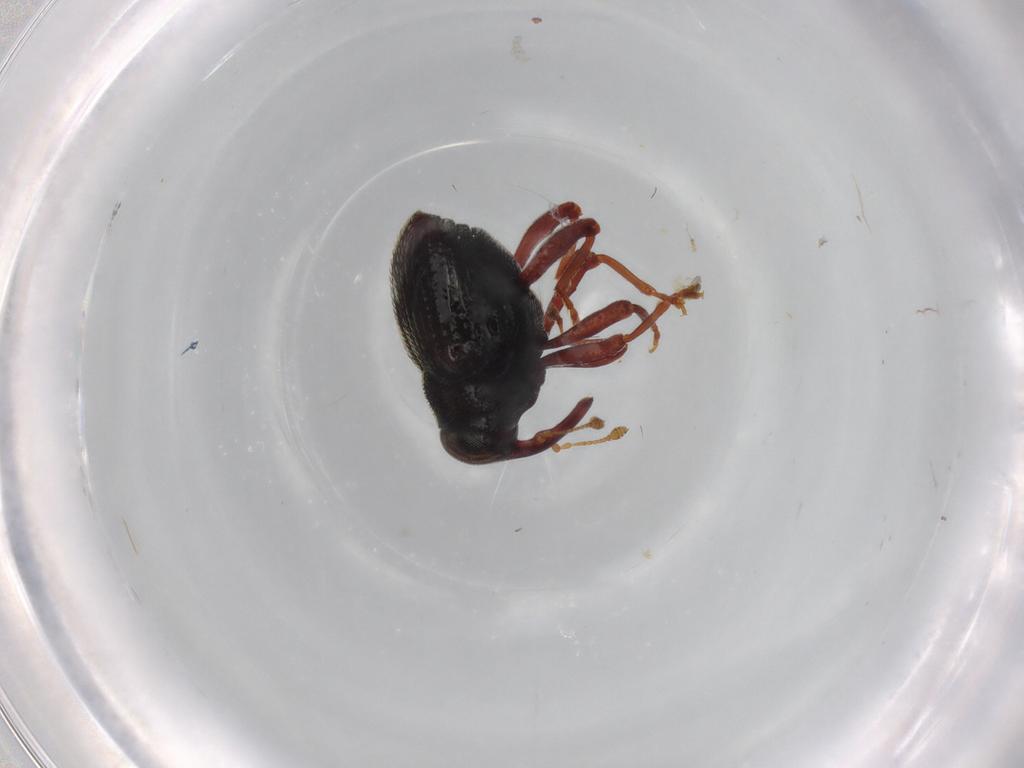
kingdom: Animalia
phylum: Arthropoda
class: Insecta
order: Coleoptera
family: Curculionidae
